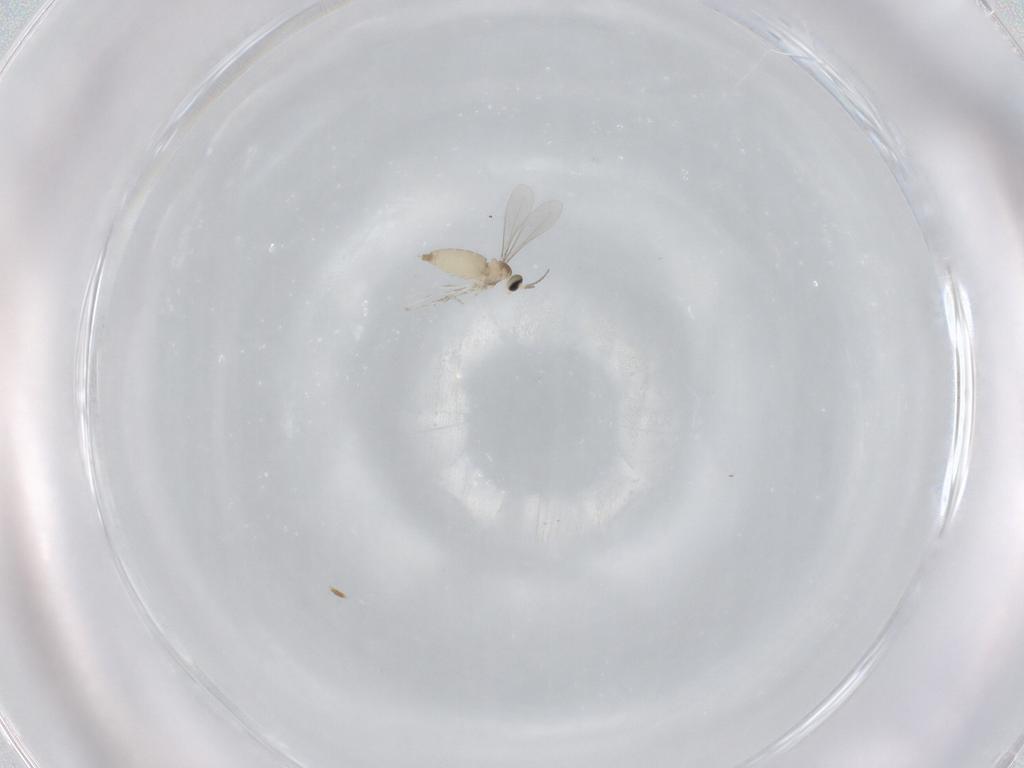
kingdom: Animalia
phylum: Arthropoda
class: Insecta
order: Diptera
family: Cecidomyiidae
